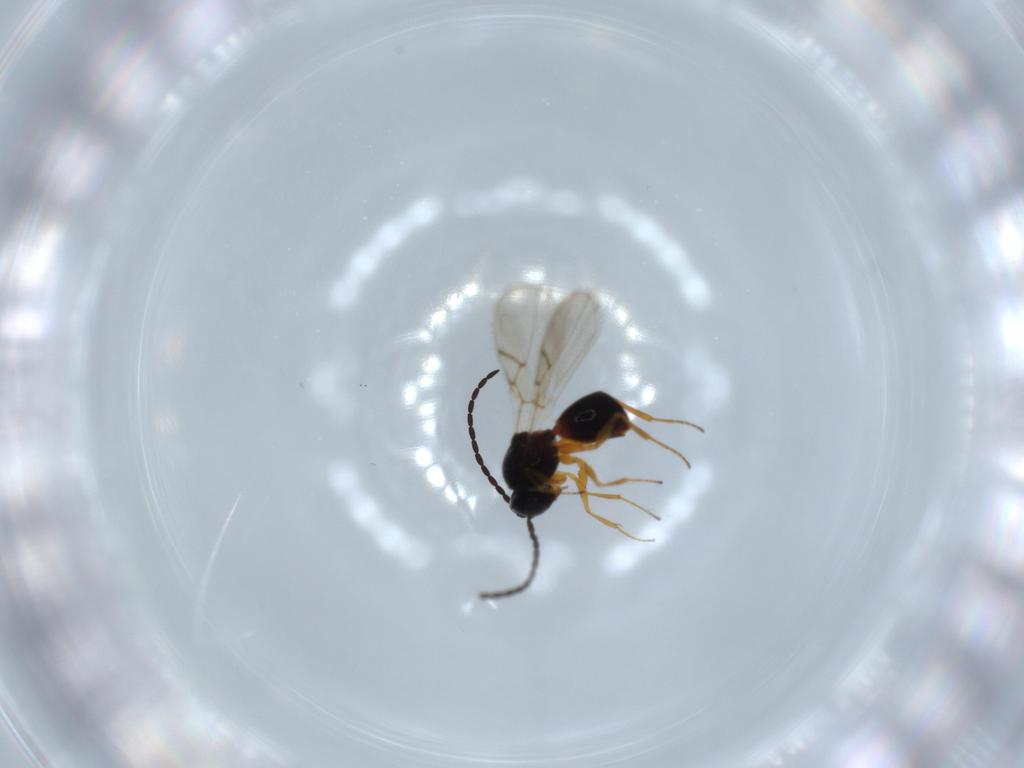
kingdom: Animalia
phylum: Arthropoda
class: Insecta
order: Hymenoptera
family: Figitidae
